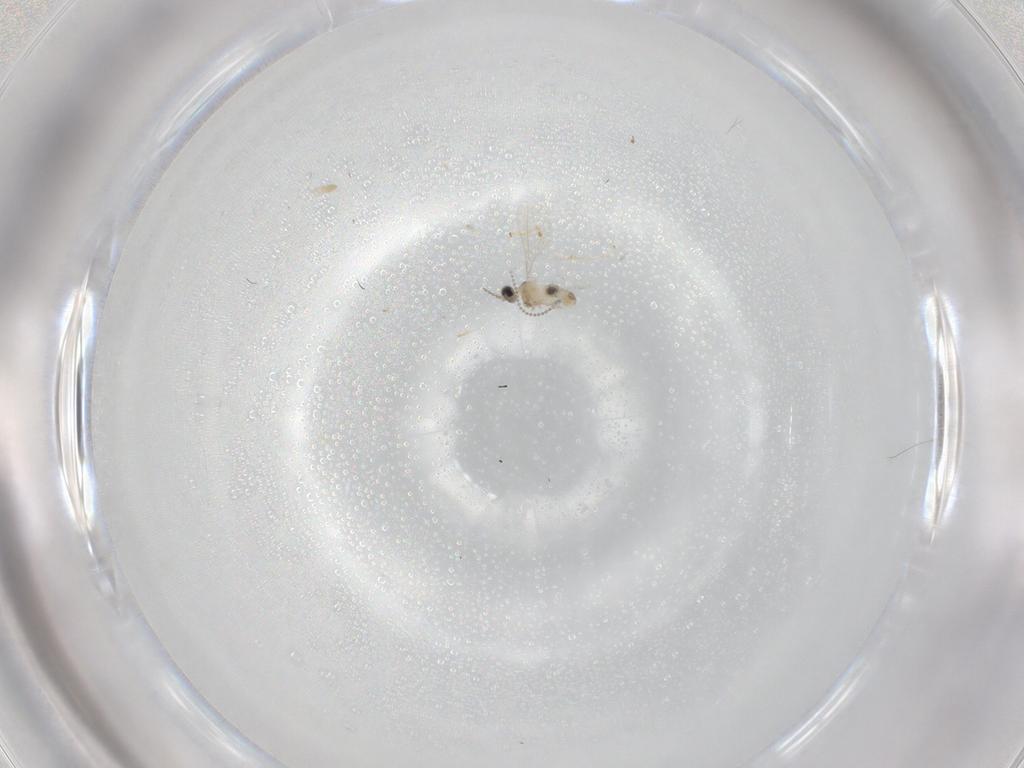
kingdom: Animalia
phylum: Arthropoda
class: Insecta
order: Diptera
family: Cecidomyiidae
